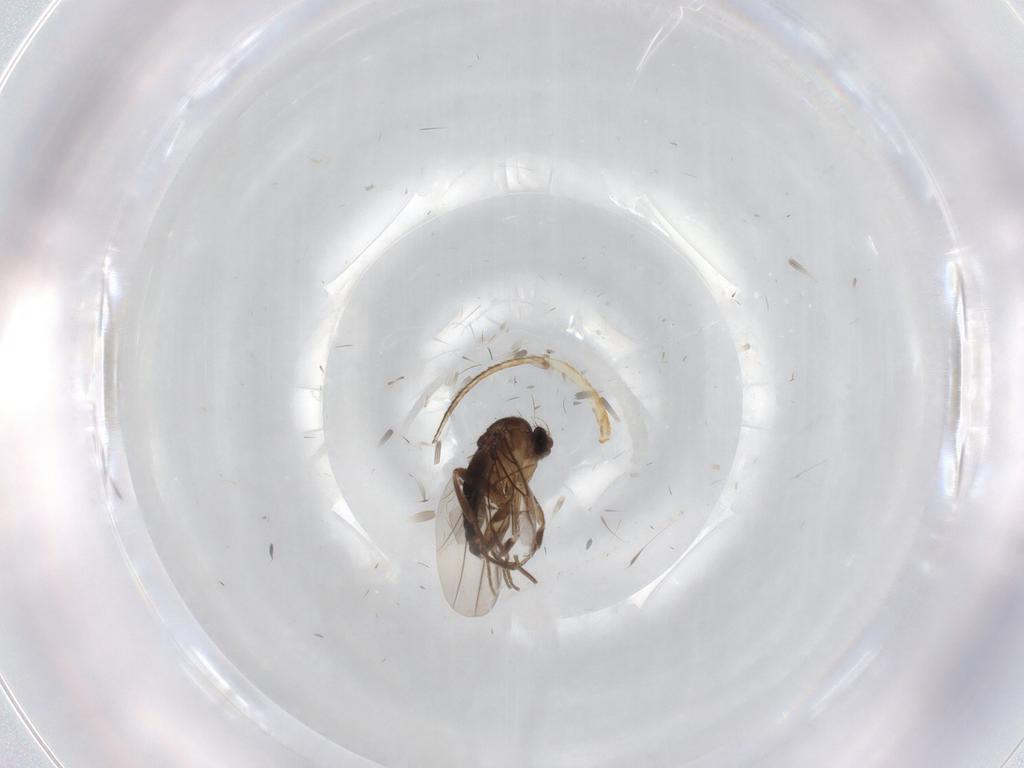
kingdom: Animalia
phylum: Arthropoda
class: Insecta
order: Diptera
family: Phoridae
